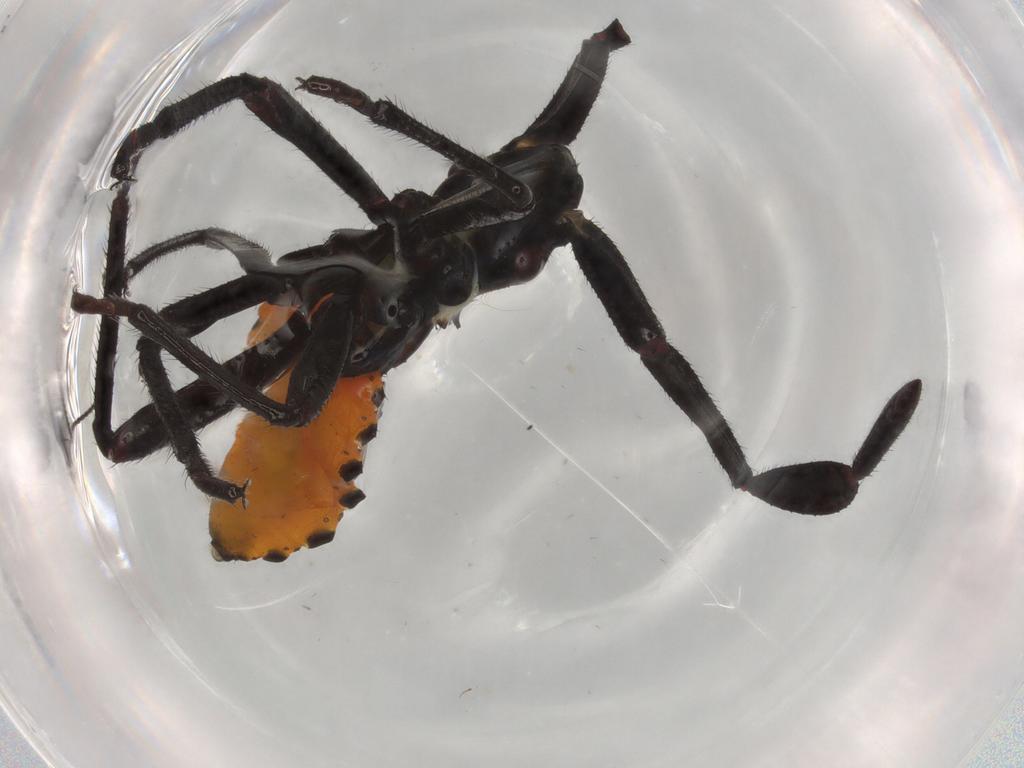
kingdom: Animalia
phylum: Arthropoda
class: Insecta
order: Hemiptera
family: Coreidae
